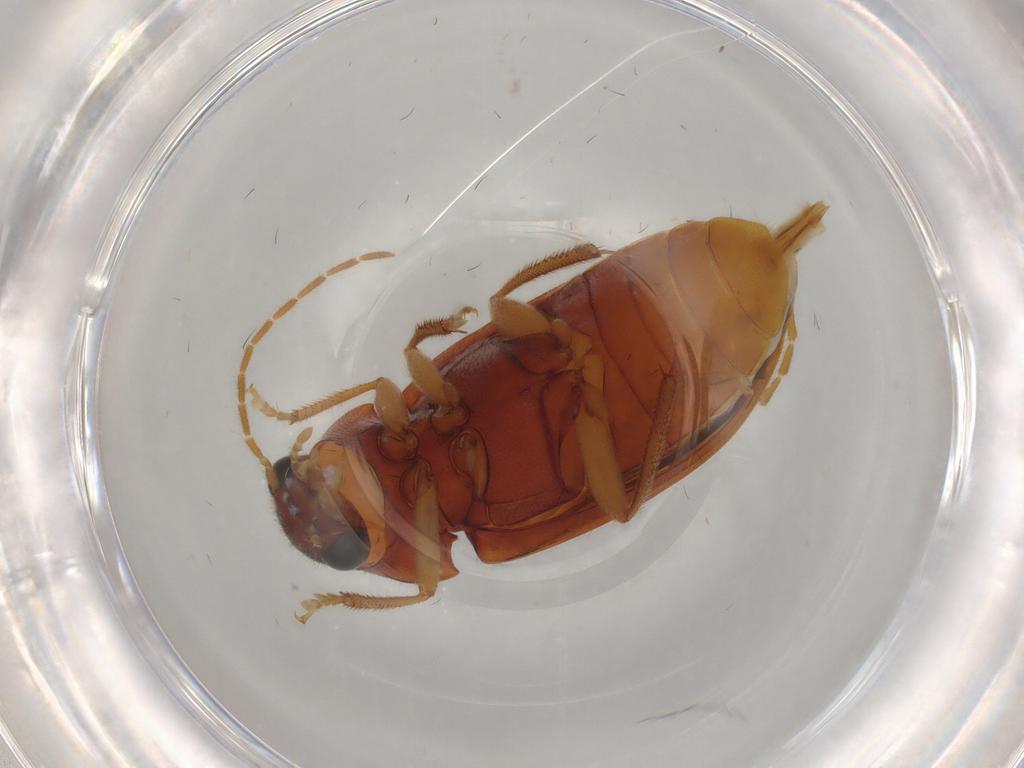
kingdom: Animalia
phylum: Arthropoda
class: Insecta
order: Coleoptera
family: Ptilodactylidae
